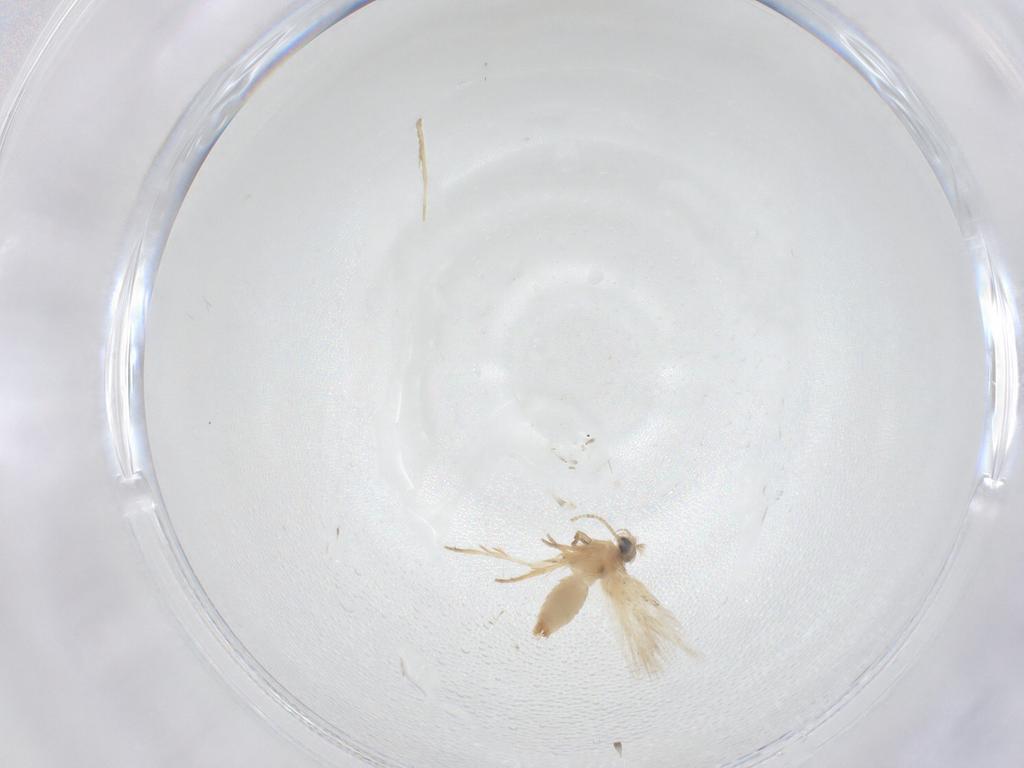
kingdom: Animalia
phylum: Arthropoda
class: Insecta
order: Lepidoptera
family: Crambidae
